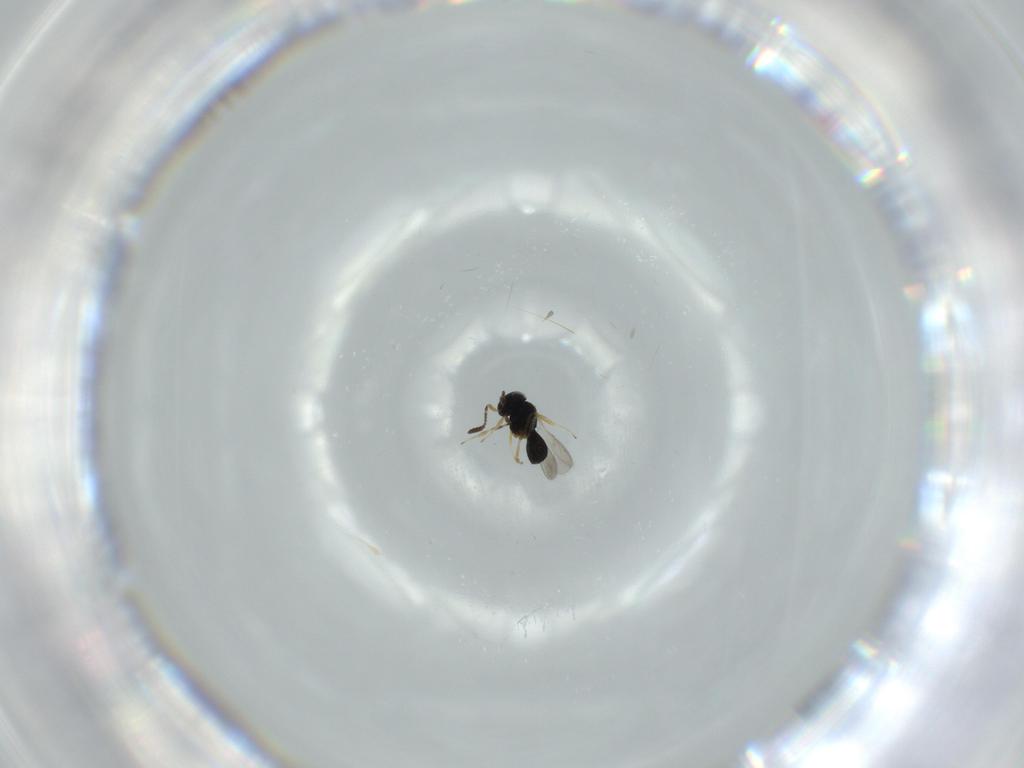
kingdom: Animalia
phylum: Arthropoda
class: Insecta
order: Hymenoptera
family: Scelionidae
